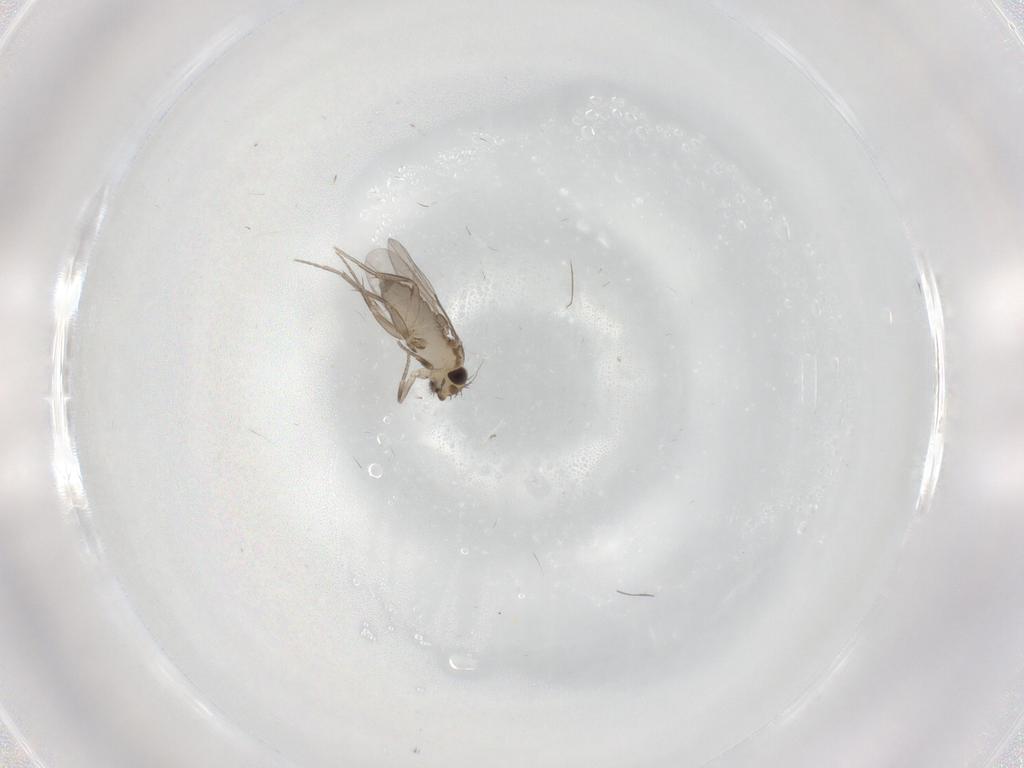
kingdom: Animalia
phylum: Arthropoda
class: Insecta
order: Diptera
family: Phoridae
